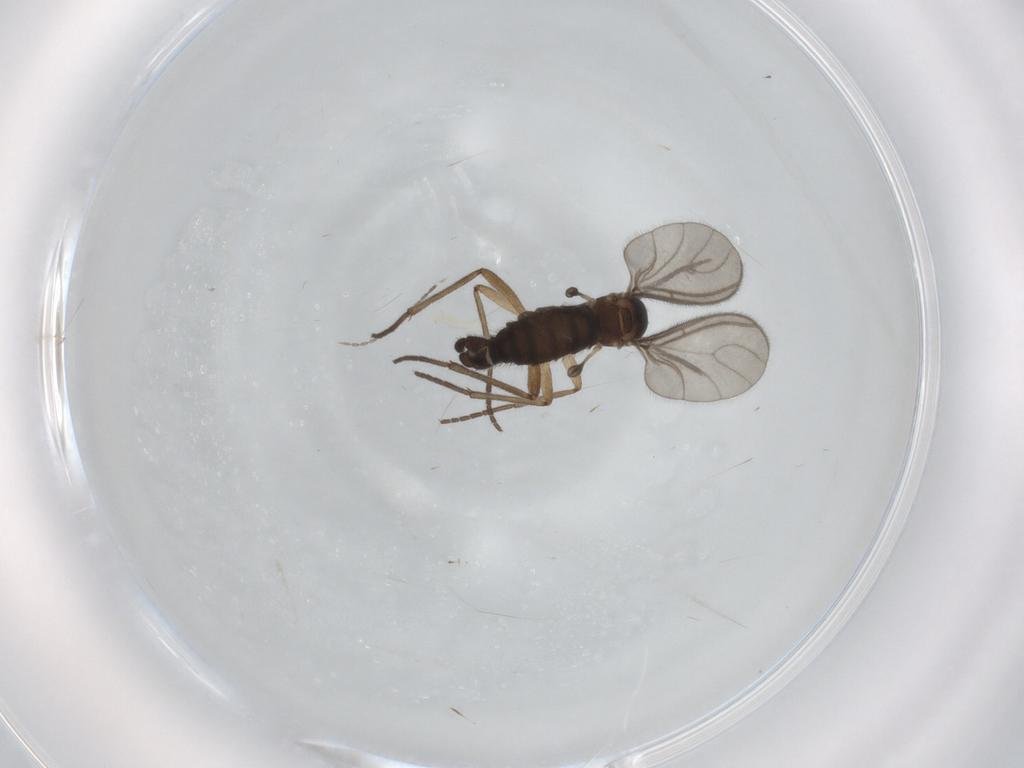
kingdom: Animalia
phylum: Arthropoda
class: Insecta
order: Diptera
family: Sciaridae
